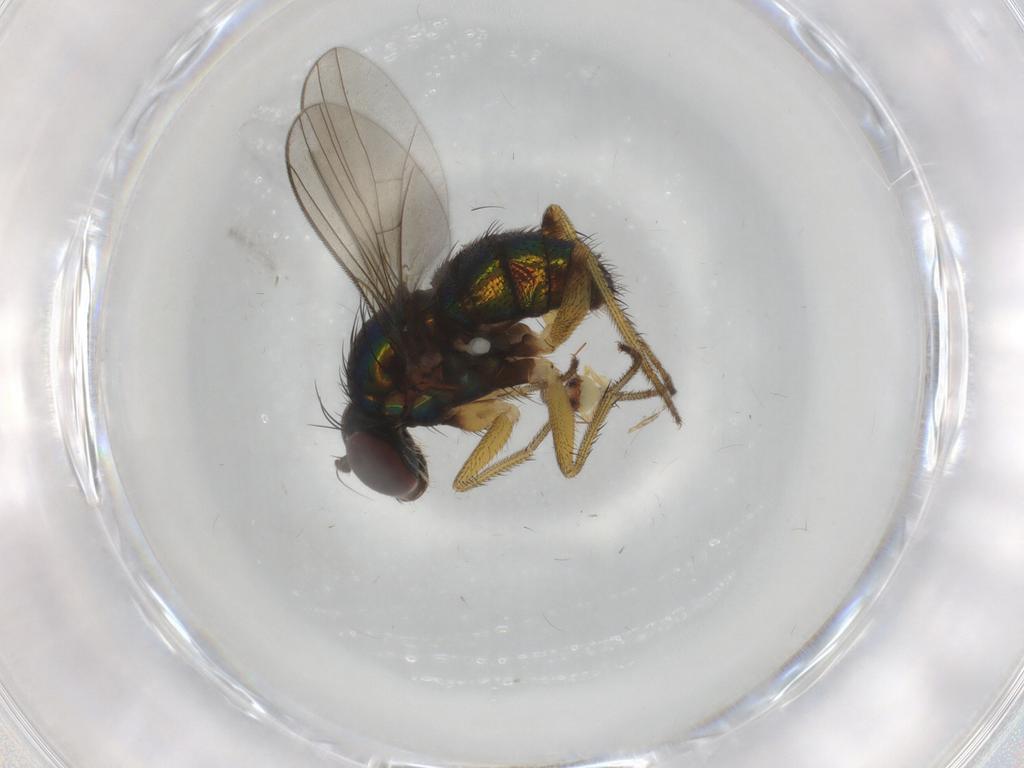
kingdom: Animalia
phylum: Arthropoda
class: Insecta
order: Diptera
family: Dolichopodidae
